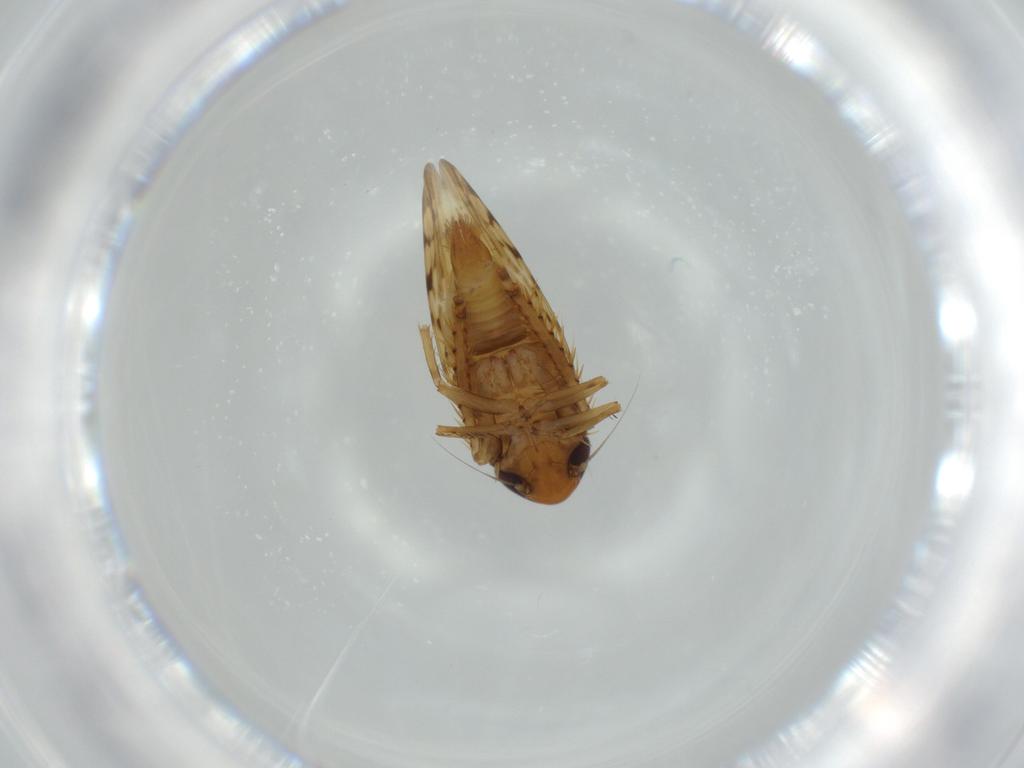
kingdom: Animalia
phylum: Arthropoda
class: Insecta
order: Hemiptera
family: Cicadellidae
